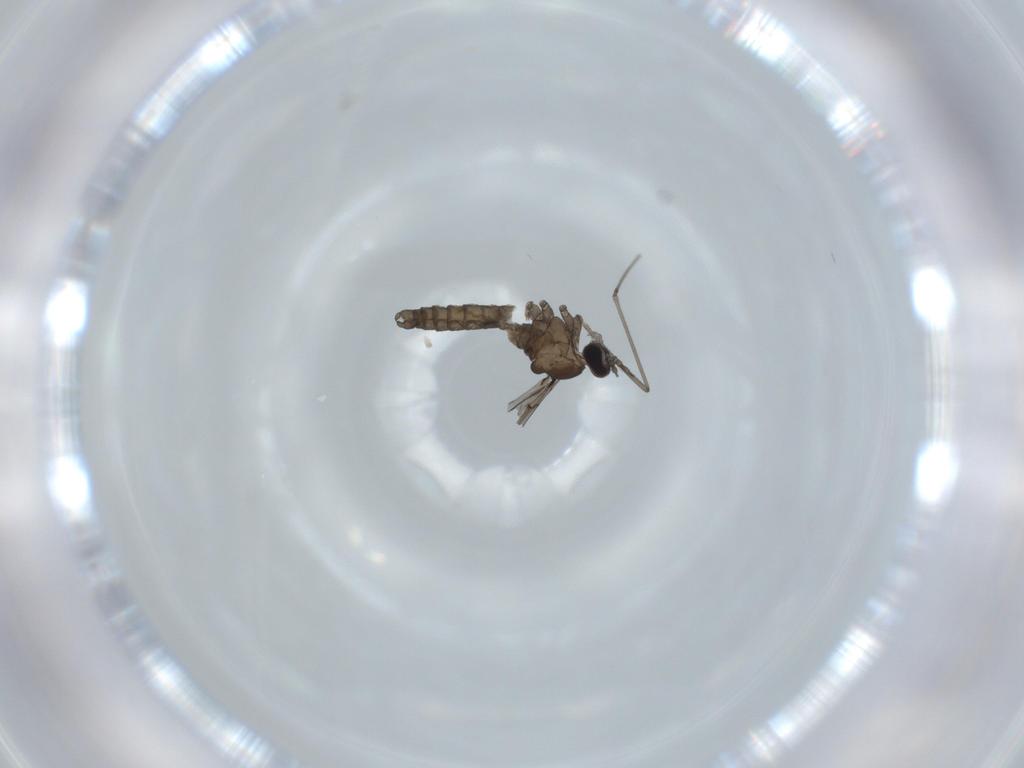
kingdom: Animalia
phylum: Arthropoda
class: Insecta
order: Diptera
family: Cecidomyiidae
